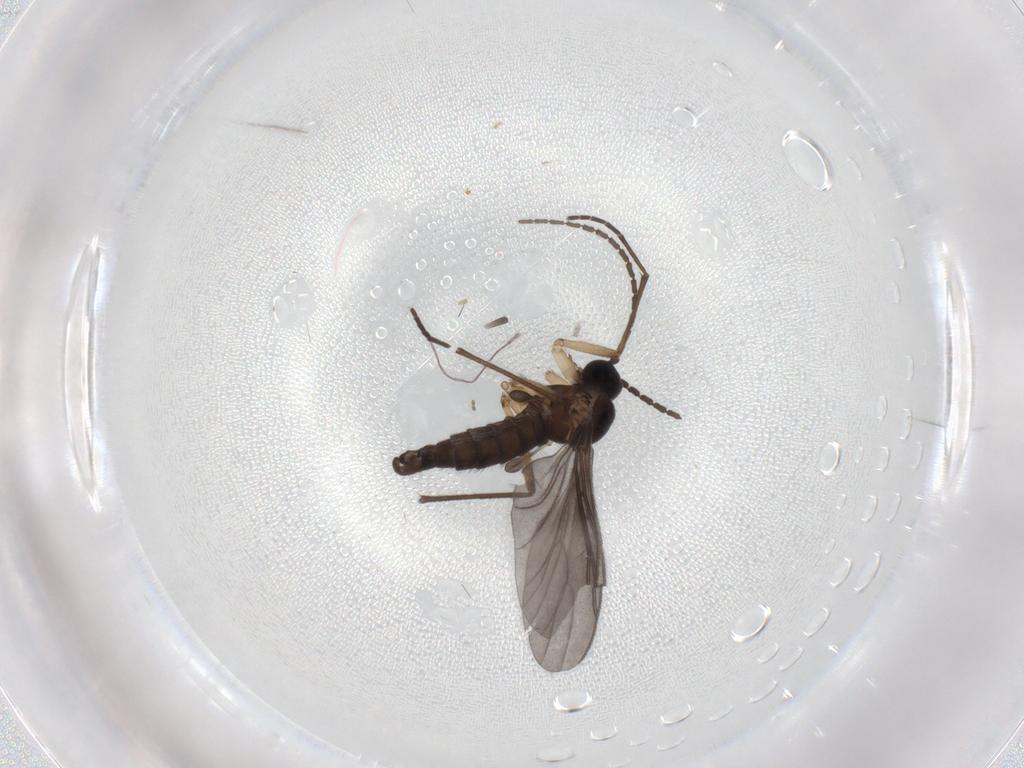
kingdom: Animalia
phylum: Arthropoda
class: Insecta
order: Diptera
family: Sciaridae
